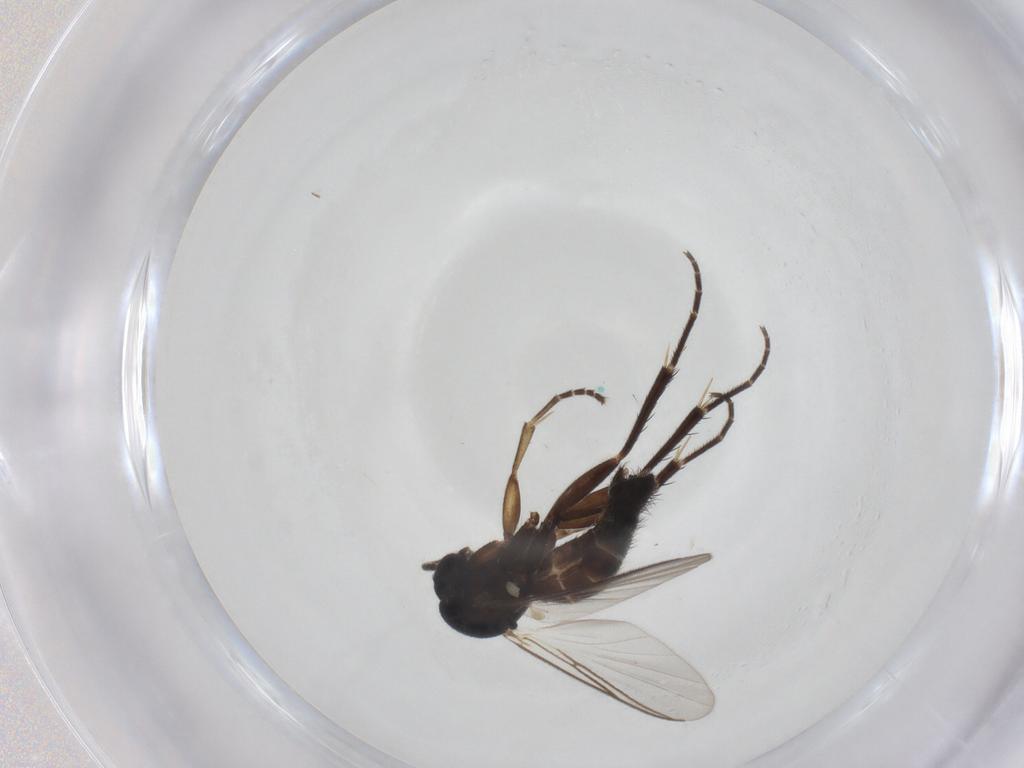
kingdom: Animalia
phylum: Arthropoda
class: Insecta
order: Diptera
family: Mycetophilidae
